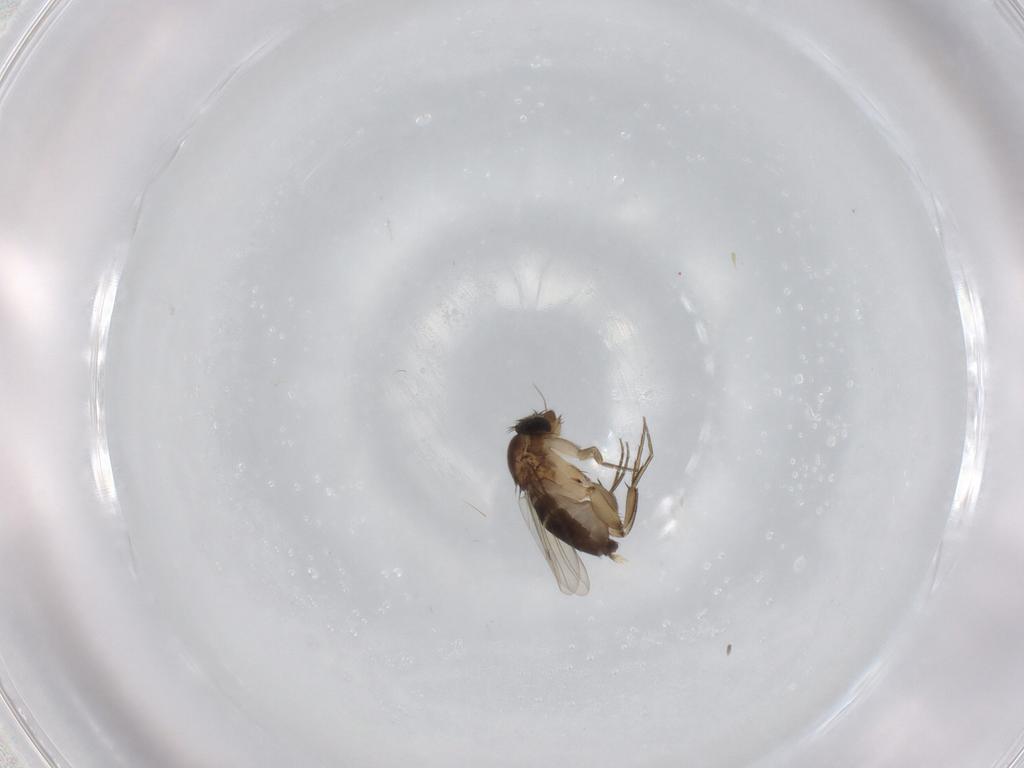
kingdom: Animalia
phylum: Arthropoda
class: Insecta
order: Diptera
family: Phoridae
